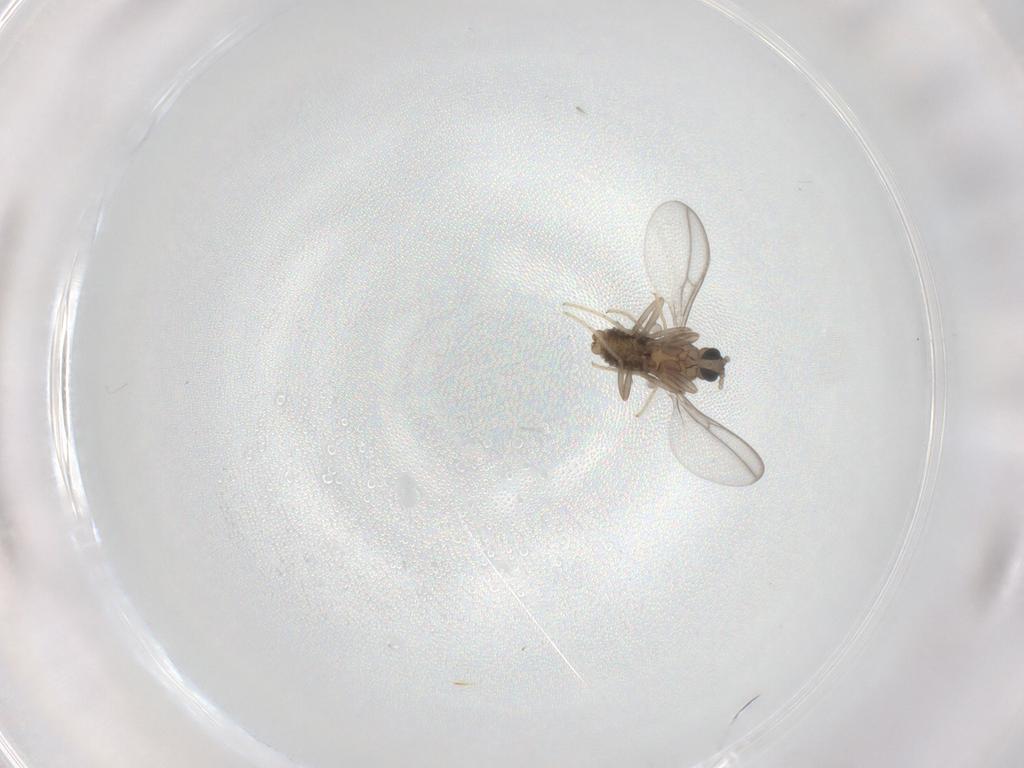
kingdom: Animalia
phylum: Arthropoda
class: Insecta
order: Diptera
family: Cecidomyiidae
